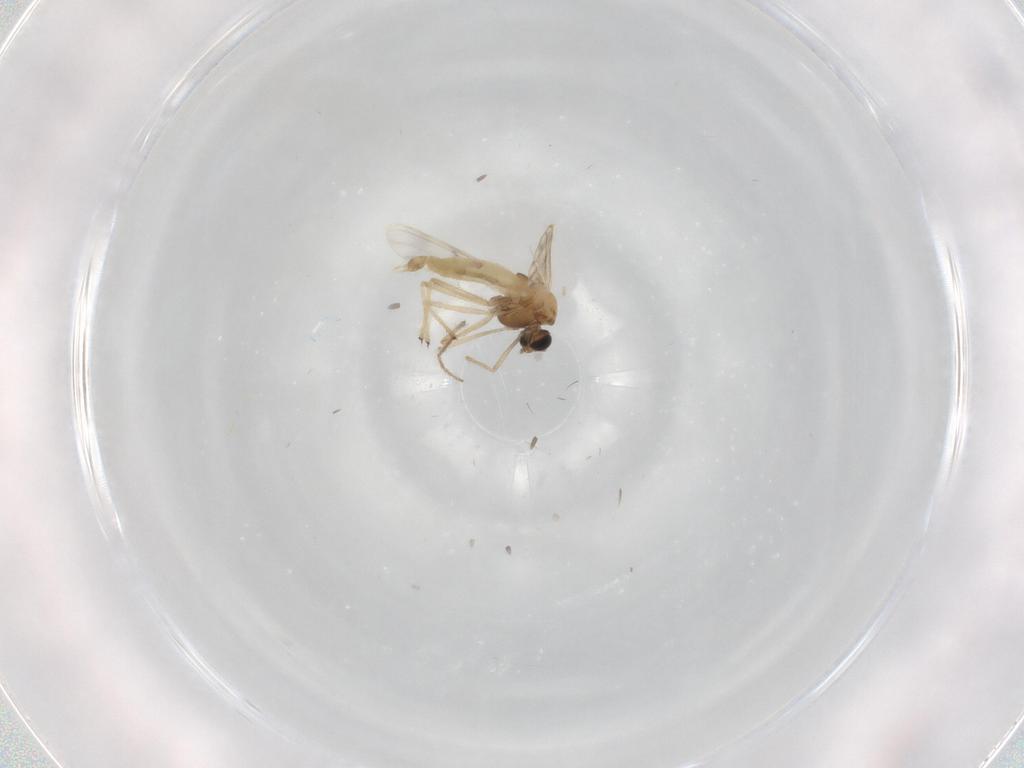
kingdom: Animalia
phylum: Arthropoda
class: Insecta
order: Diptera
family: Chironomidae
